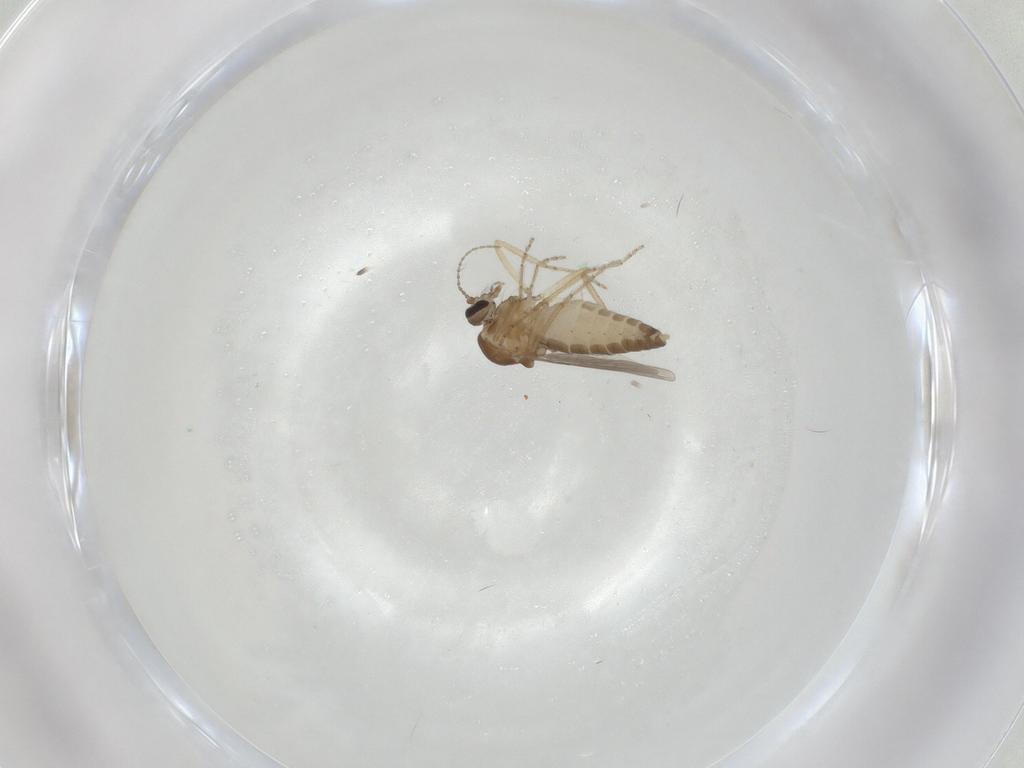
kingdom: Animalia
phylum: Arthropoda
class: Insecta
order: Diptera
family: Ceratopogonidae
